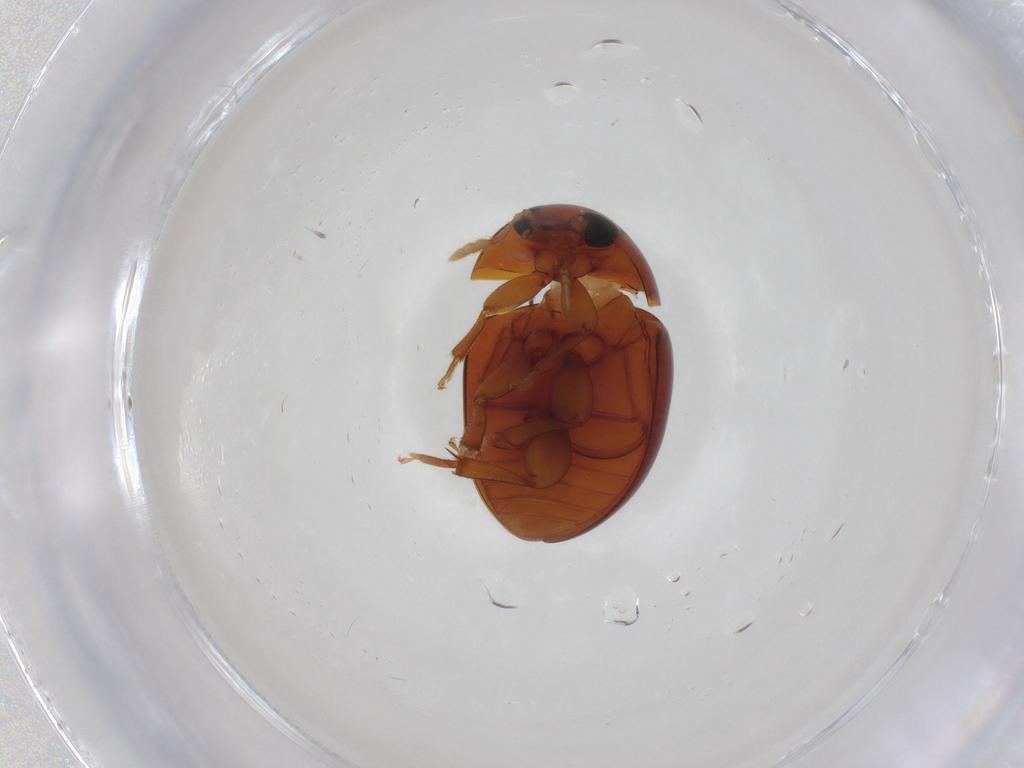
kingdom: Animalia
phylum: Arthropoda
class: Insecta
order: Coleoptera
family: Phalacridae
